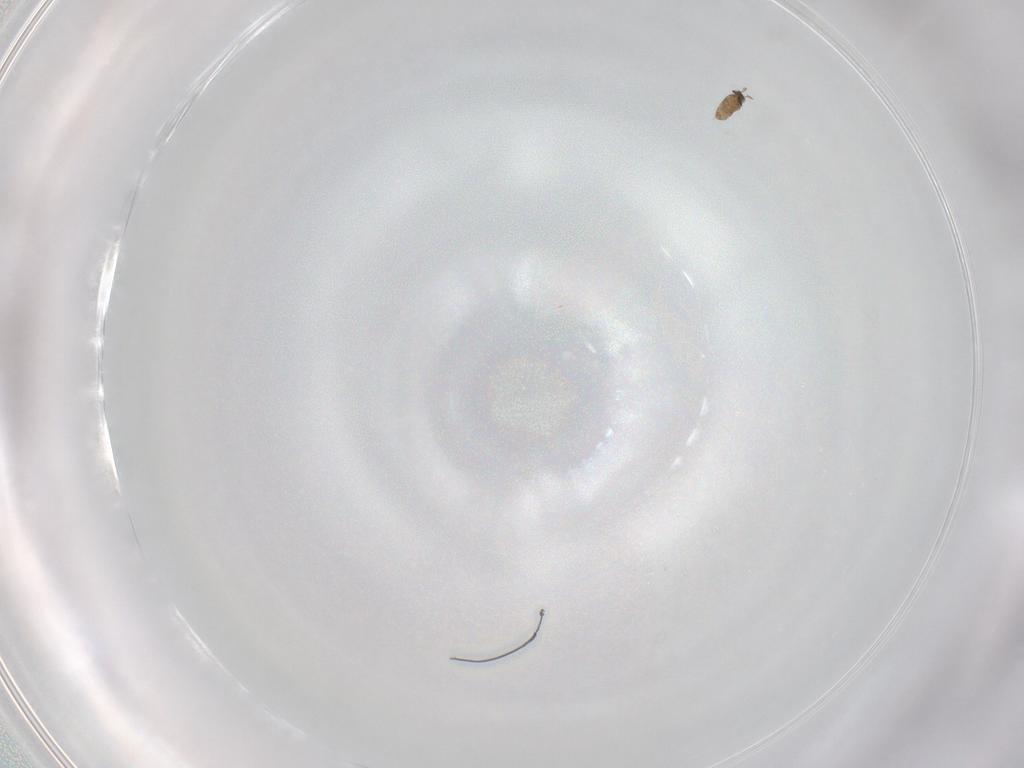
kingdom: Animalia
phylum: Arthropoda
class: Insecta
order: Hymenoptera
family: Mymaridae
